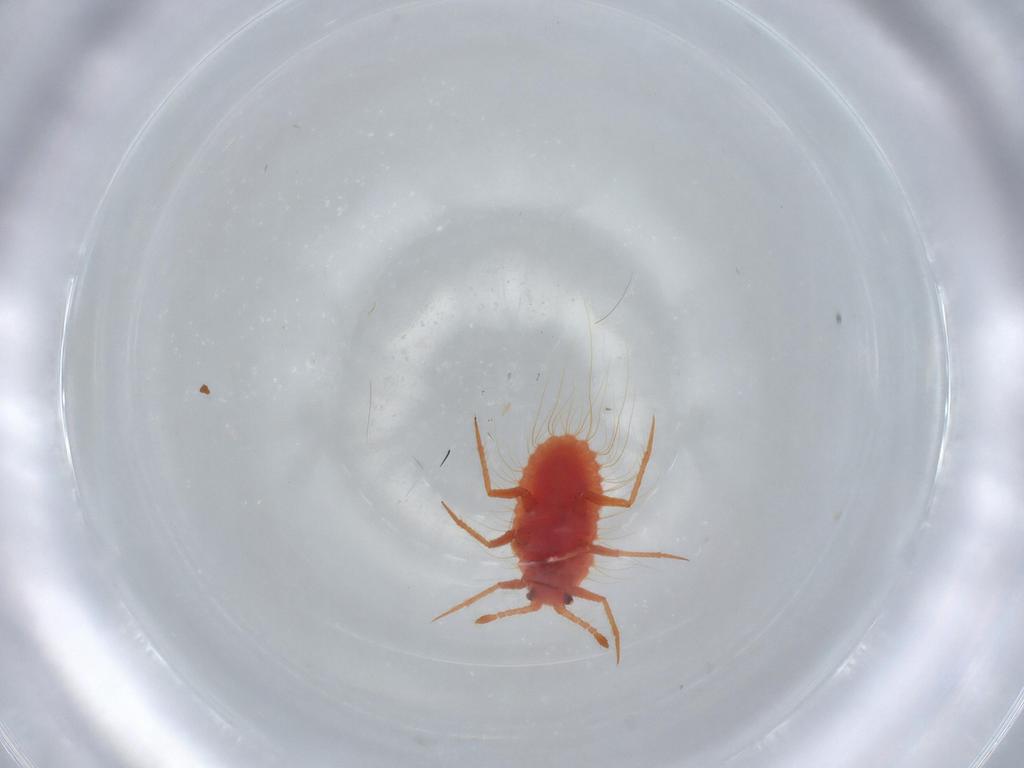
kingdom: Animalia
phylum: Arthropoda
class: Insecta
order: Hemiptera
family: Monophlebidae
